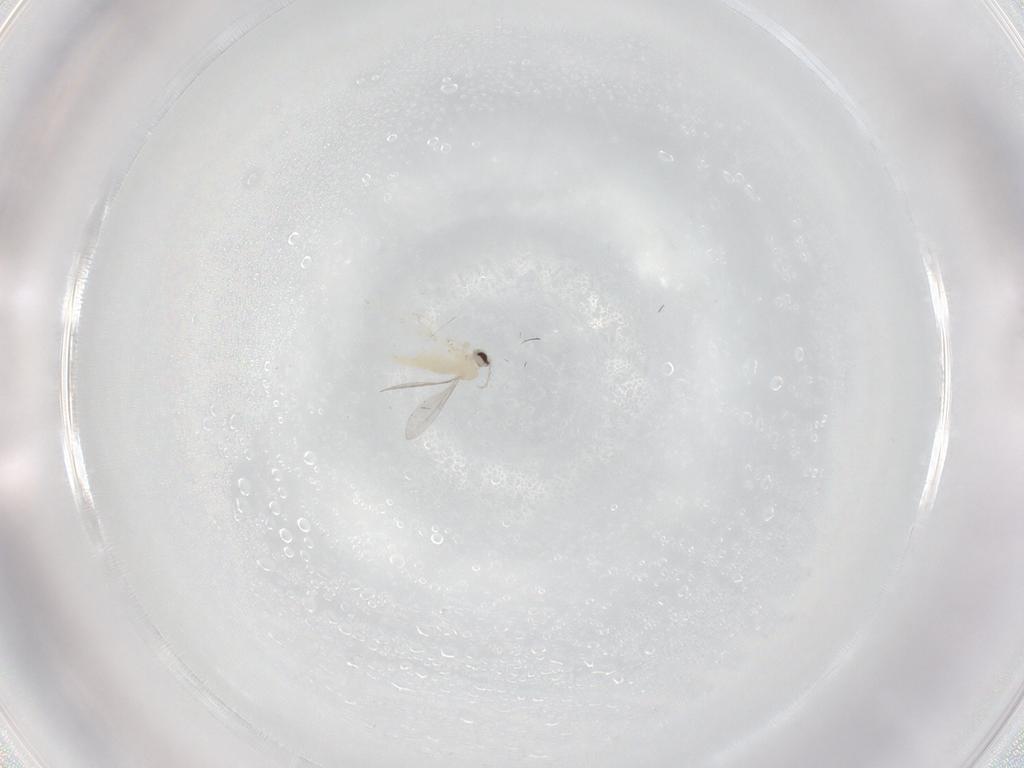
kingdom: Animalia
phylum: Arthropoda
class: Insecta
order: Diptera
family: Cecidomyiidae
